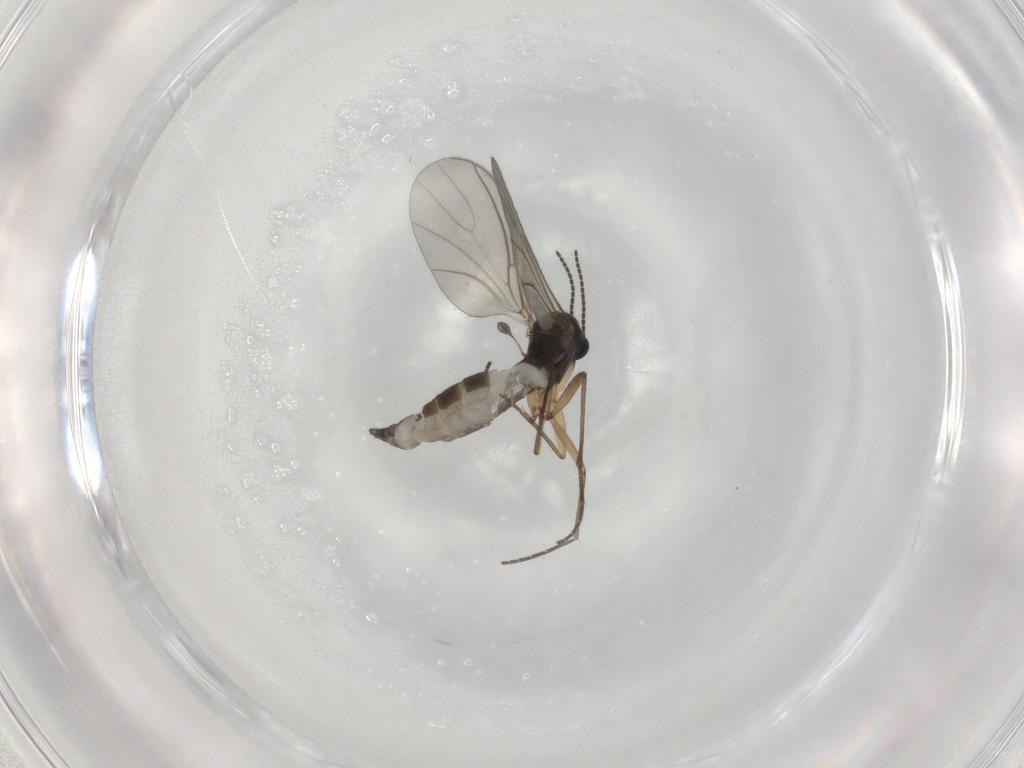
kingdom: Animalia
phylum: Arthropoda
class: Insecta
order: Diptera
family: Sciaridae
